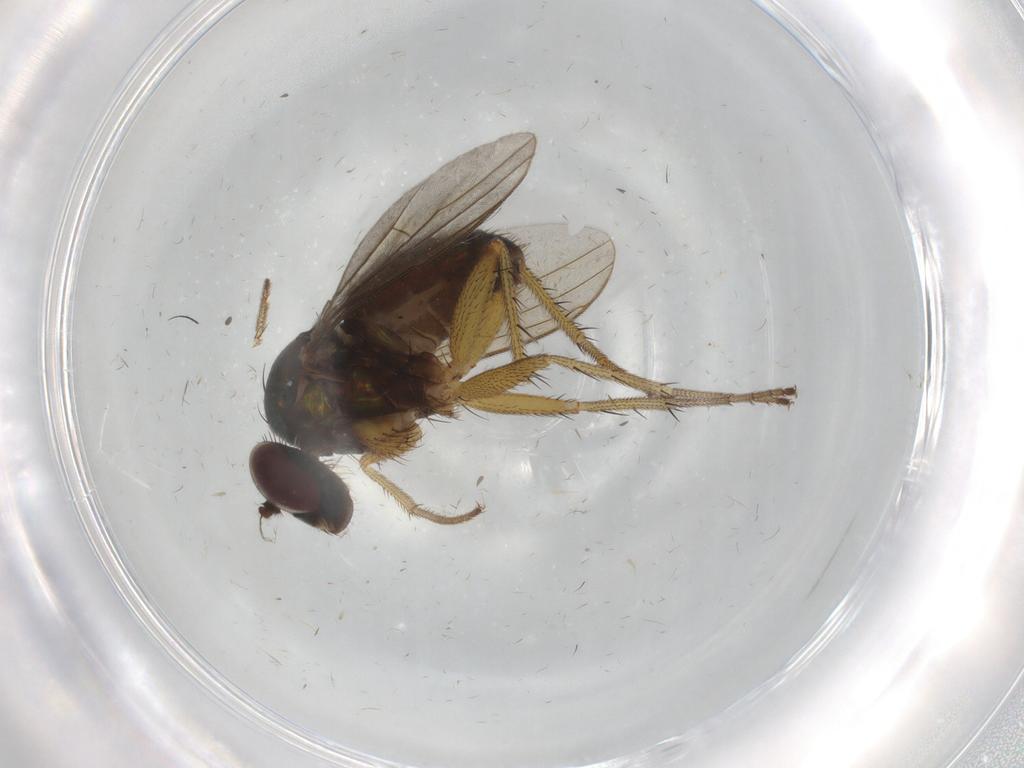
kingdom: Animalia
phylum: Arthropoda
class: Insecta
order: Diptera
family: Dolichopodidae
